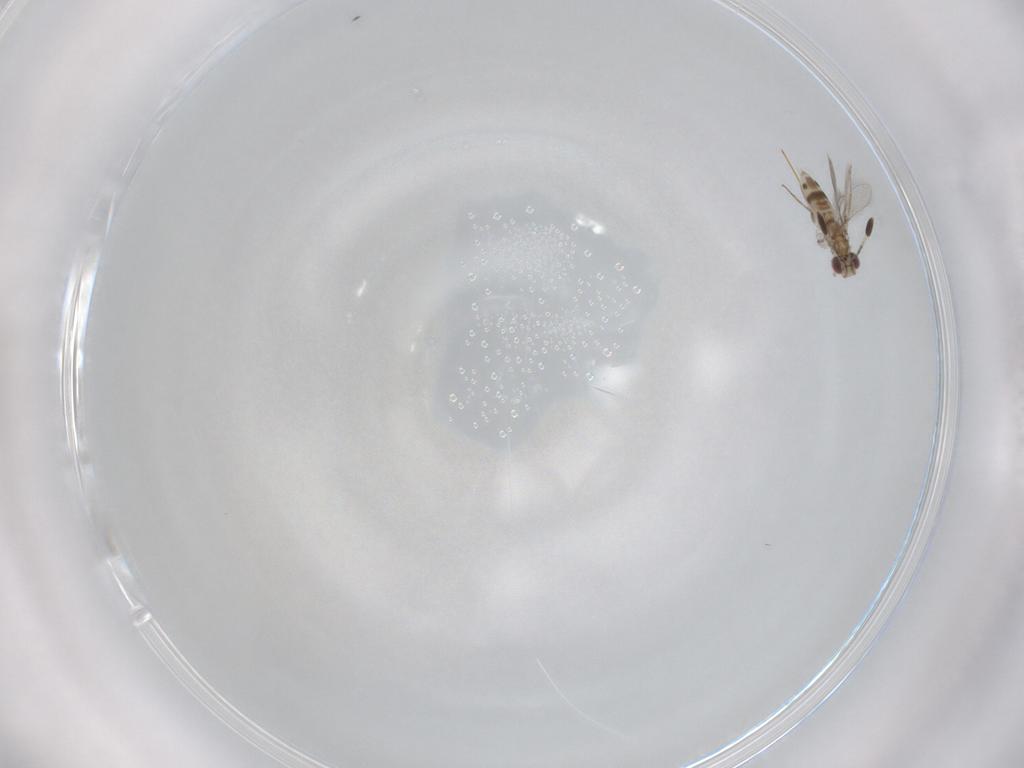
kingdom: Animalia
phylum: Arthropoda
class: Insecta
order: Hymenoptera
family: Mymaridae
